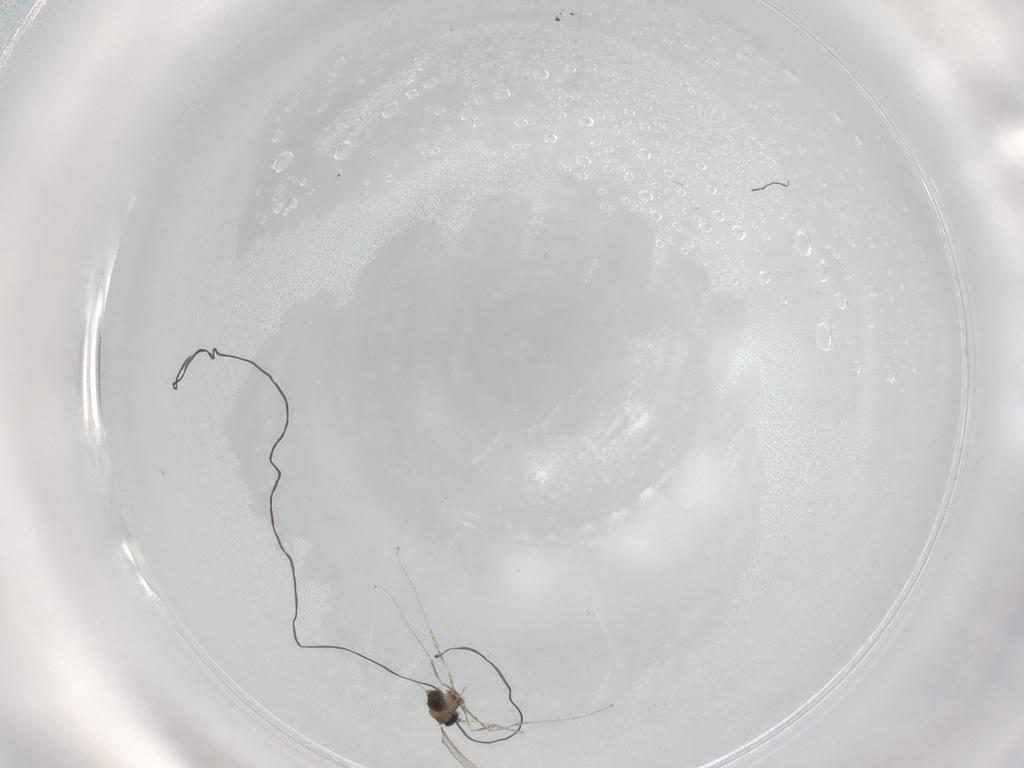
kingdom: Animalia
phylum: Arthropoda
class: Insecta
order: Diptera
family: Cecidomyiidae
